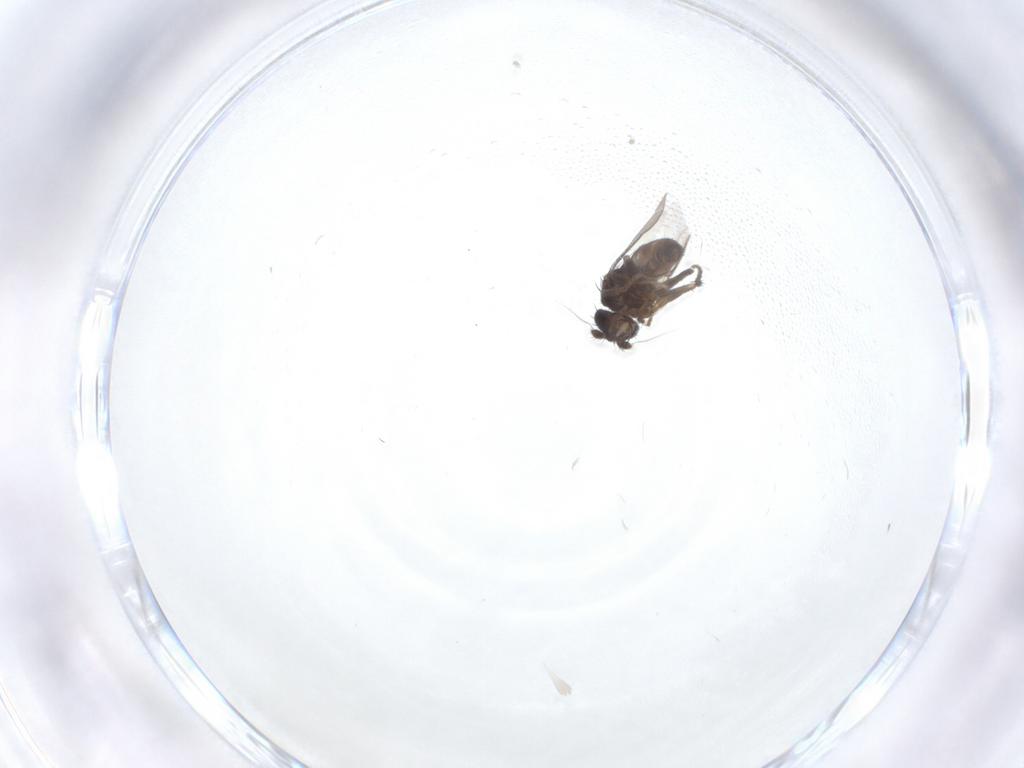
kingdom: Animalia
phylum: Arthropoda
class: Insecta
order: Diptera
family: Sphaeroceridae
